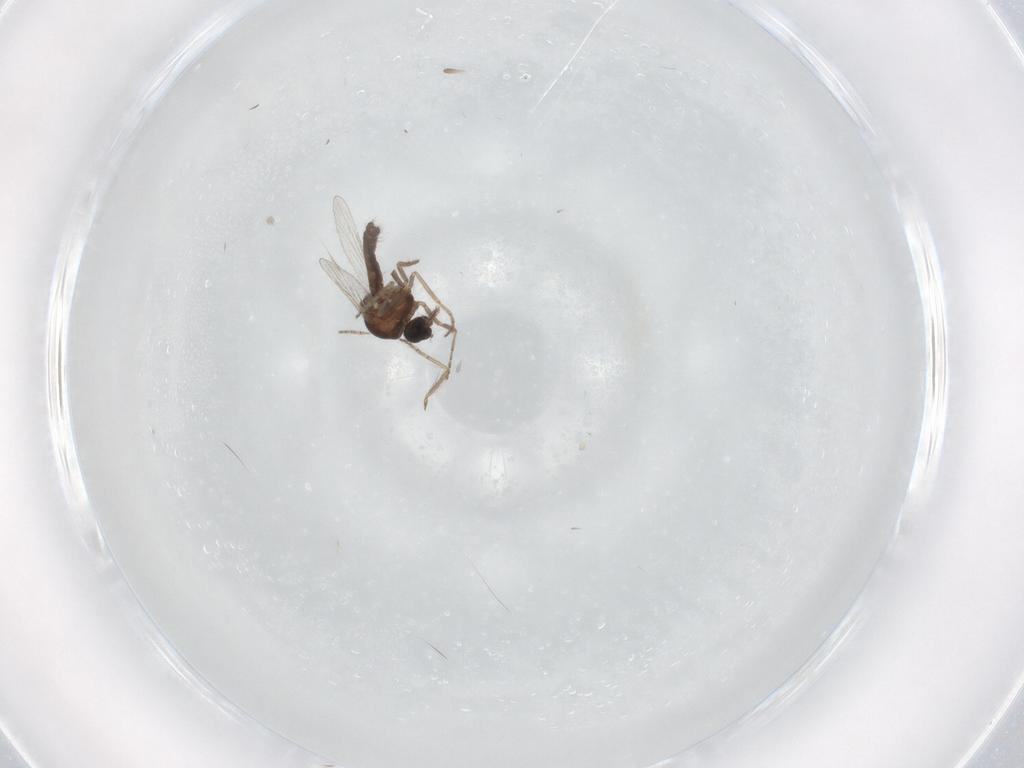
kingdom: Animalia
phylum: Arthropoda
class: Insecta
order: Diptera
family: Ceratopogonidae
